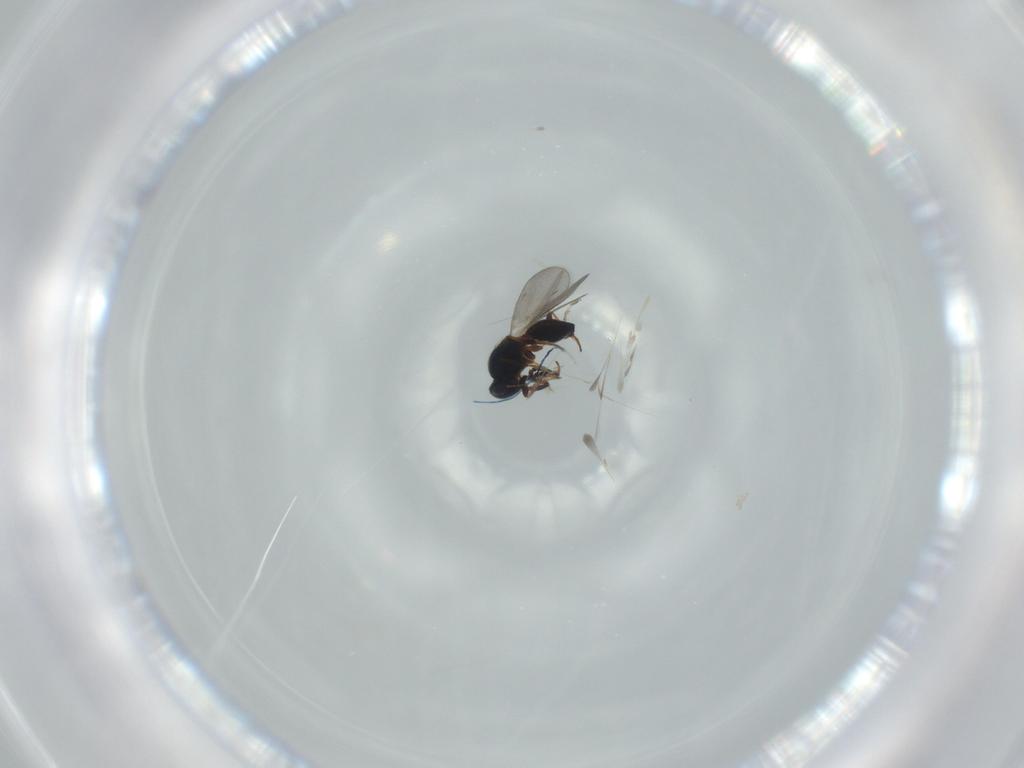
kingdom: Animalia
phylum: Arthropoda
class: Insecta
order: Hymenoptera
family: Platygastridae
